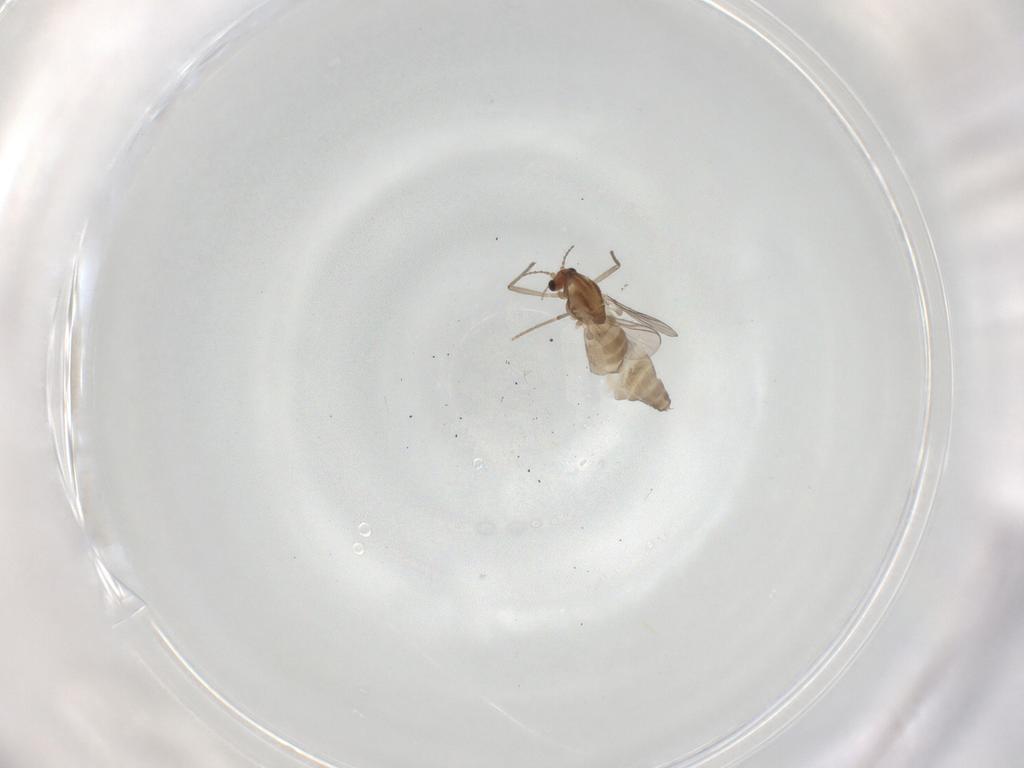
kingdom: Animalia
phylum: Arthropoda
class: Insecta
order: Diptera
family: Chironomidae
